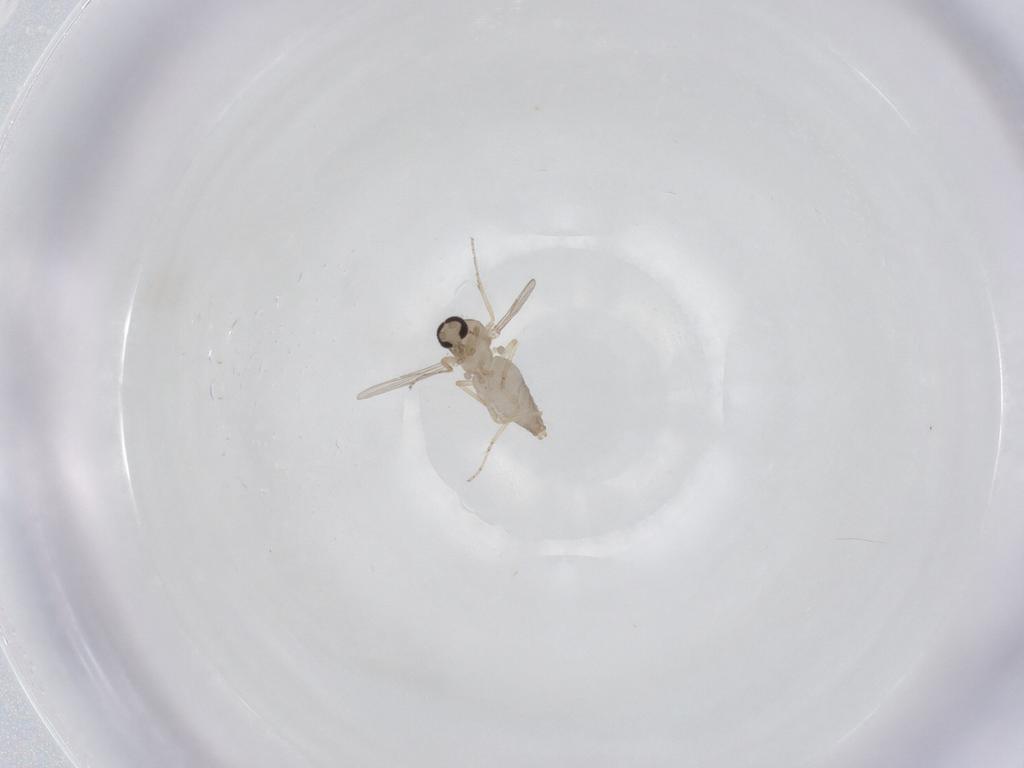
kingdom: Animalia
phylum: Arthropoda
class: Insecta
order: Diptera
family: Ceratopogonidae
